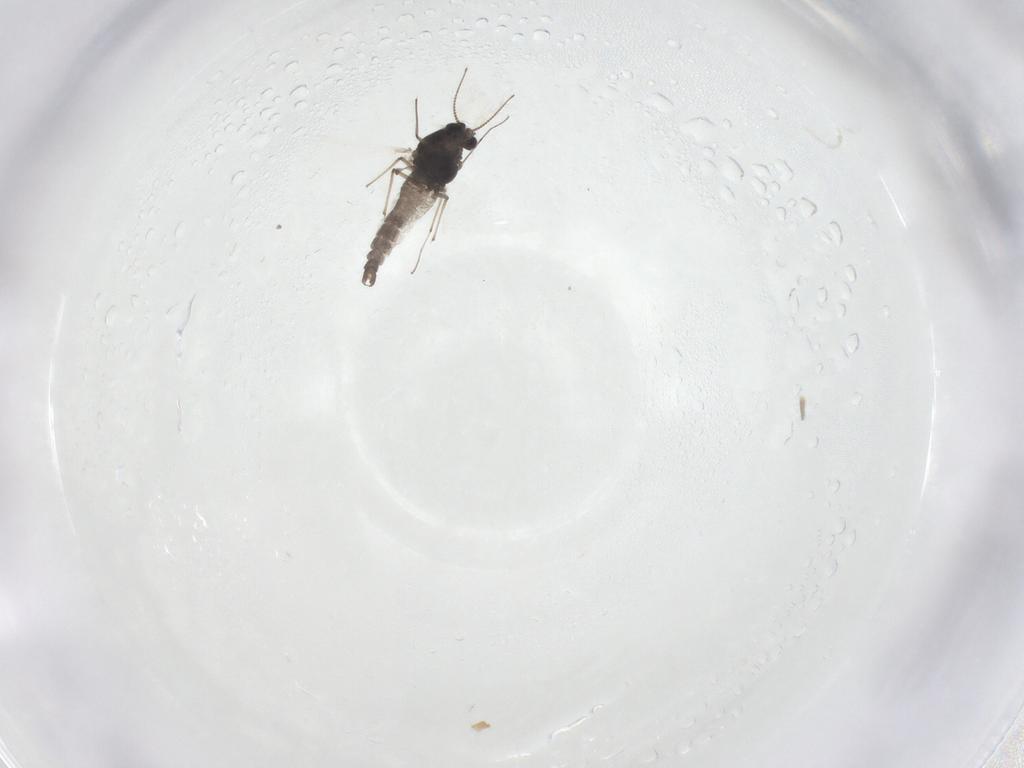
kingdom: Animalia
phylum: Arthropoda
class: Insecta
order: Diptera
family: Chironomidae
